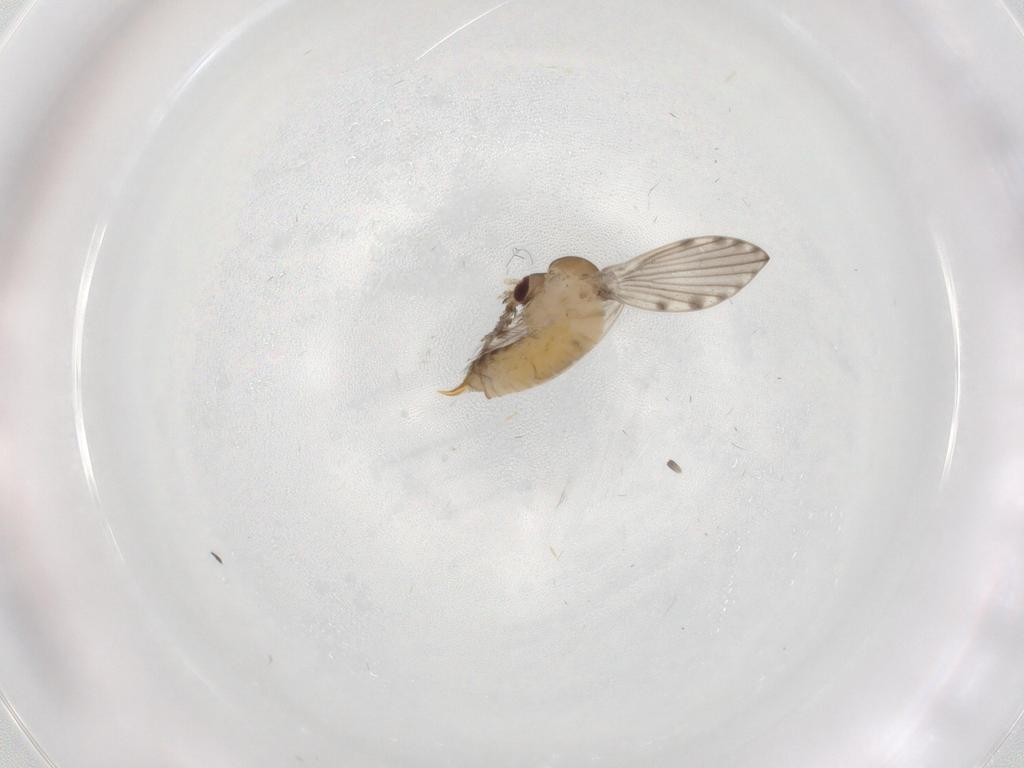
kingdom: Animalia
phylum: Arthropoda
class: Insecta
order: Diptera
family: Psychodidae
